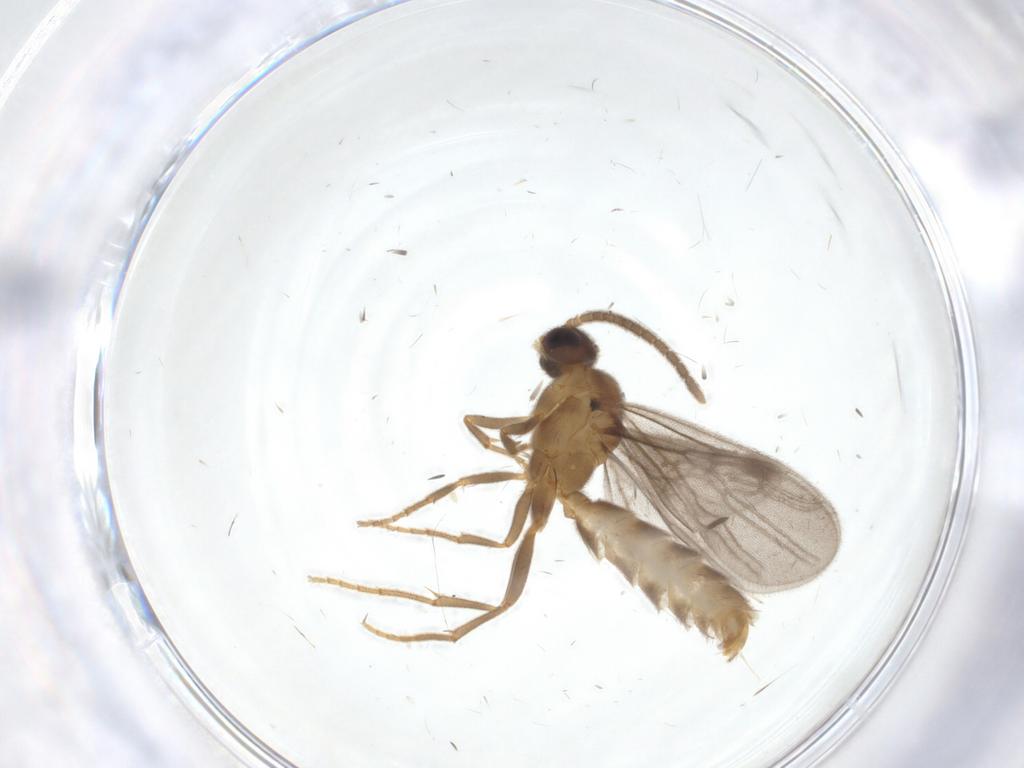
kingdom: Animalia
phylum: Arthropoda
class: Insecta
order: Hymenoptera
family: Formicidae
